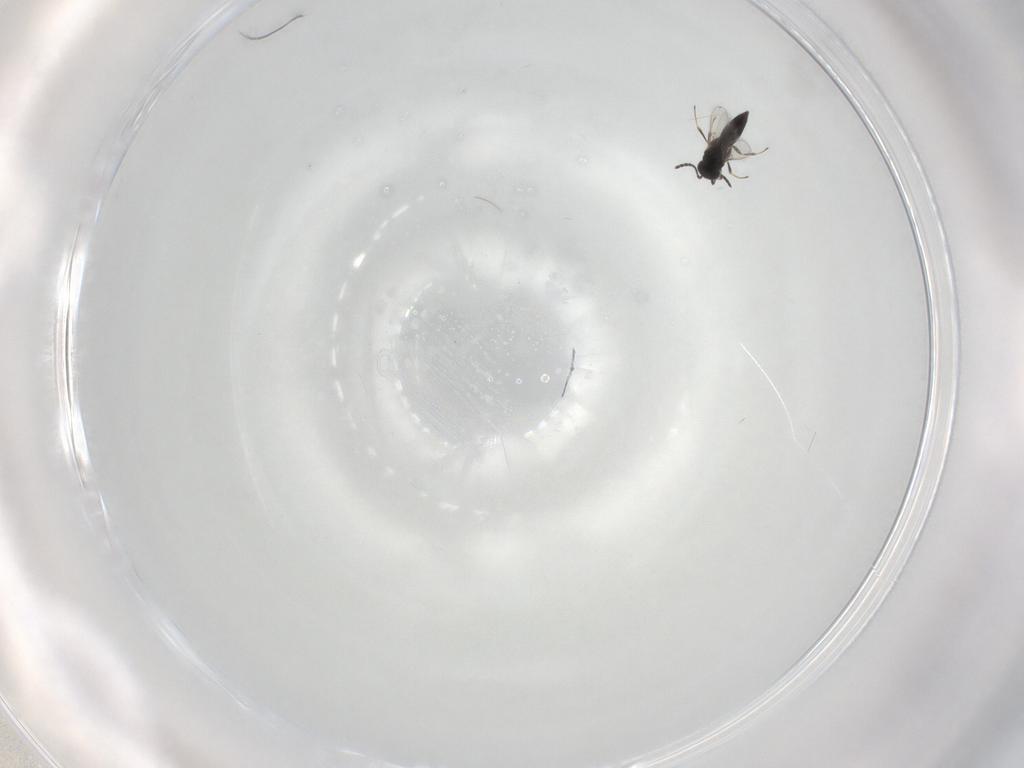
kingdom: Animalia
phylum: Arthropoda
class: Insecta
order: Hymenoptera
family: Scelionidae
